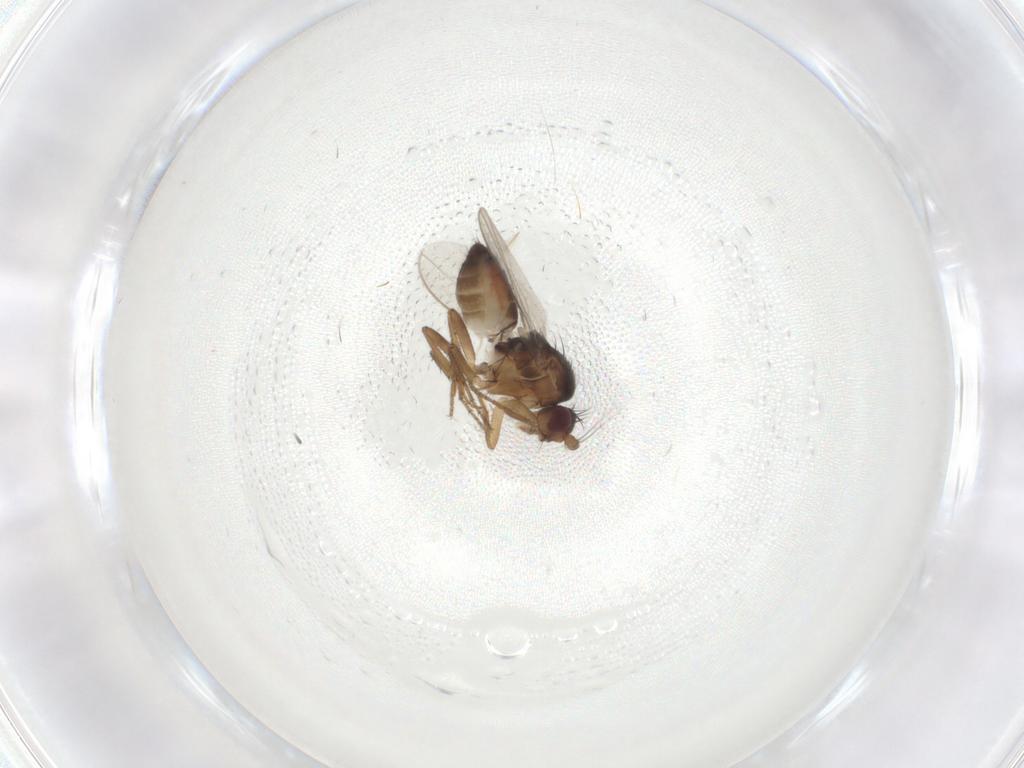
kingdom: Animalia
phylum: Arthropoda
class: Insecta
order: Diptera
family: Sphaeroceridae
